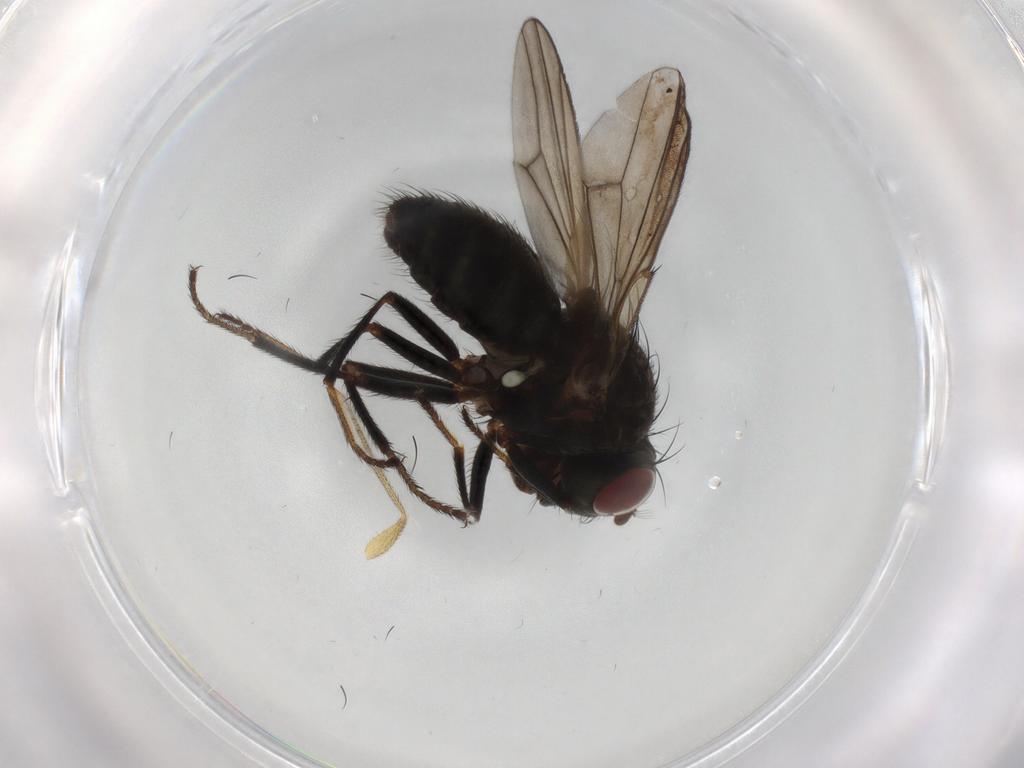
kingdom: Animalia
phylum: Arthropoda
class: Insecta
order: Diptera
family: Ephydridae
